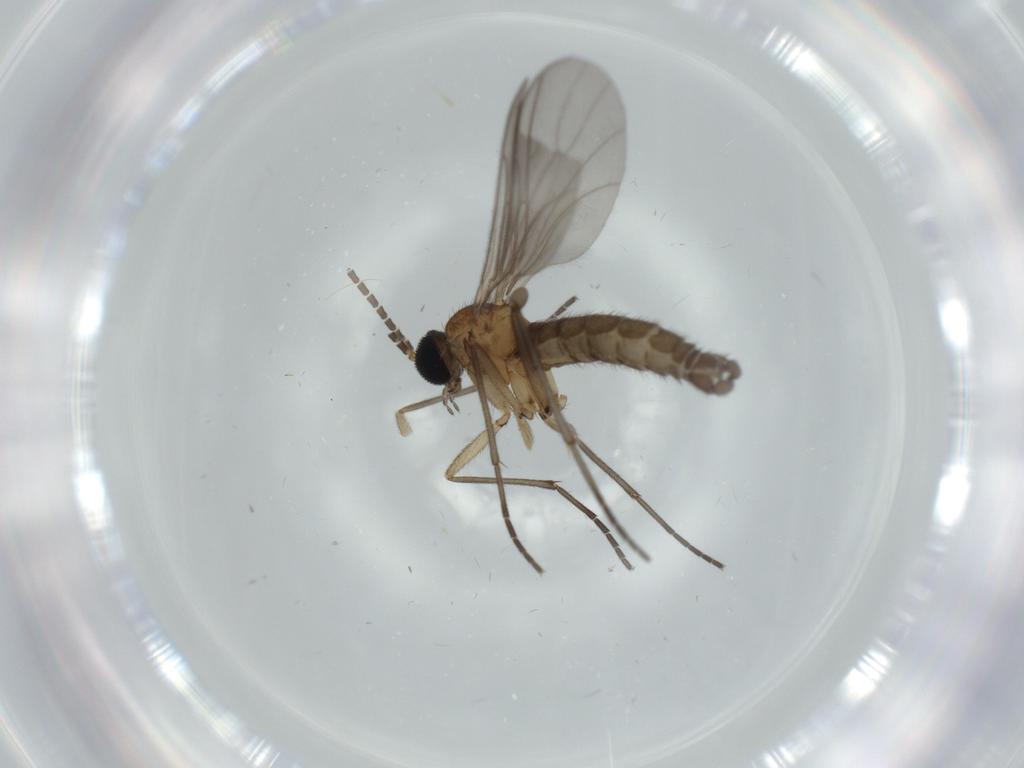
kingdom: Animalia
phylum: Arthropoda
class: Insecta
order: Diptera
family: Sciaridae
